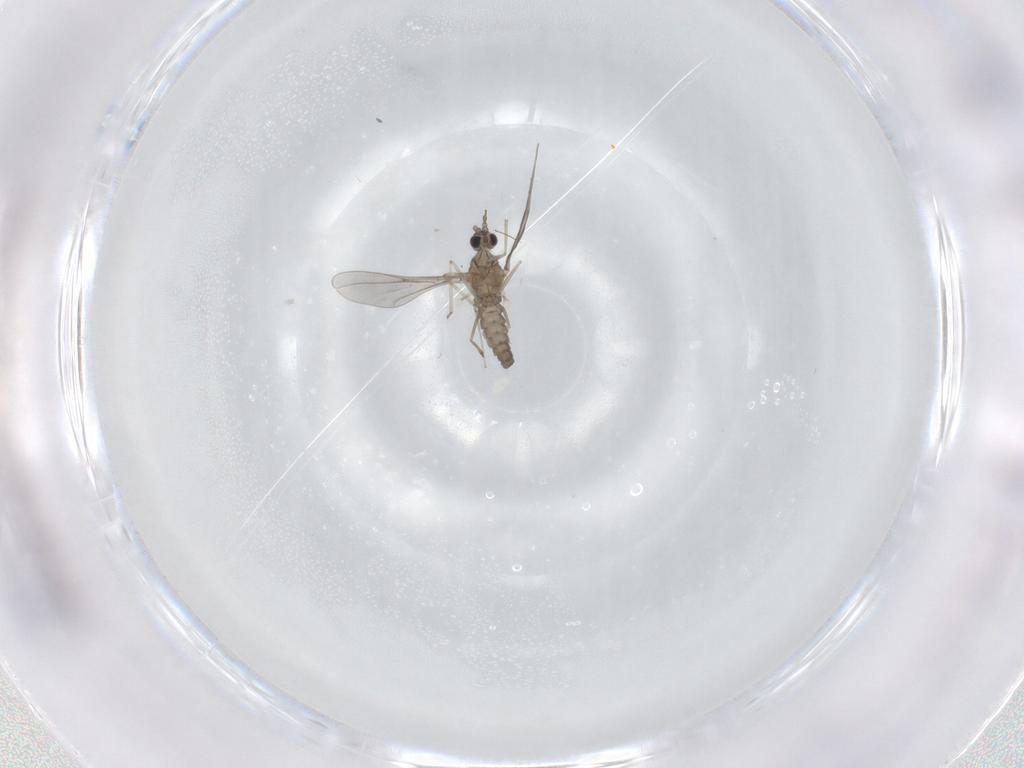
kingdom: Animalia
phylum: Arthropoda
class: Insecta
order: Diptera
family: Cecidomyiidae
